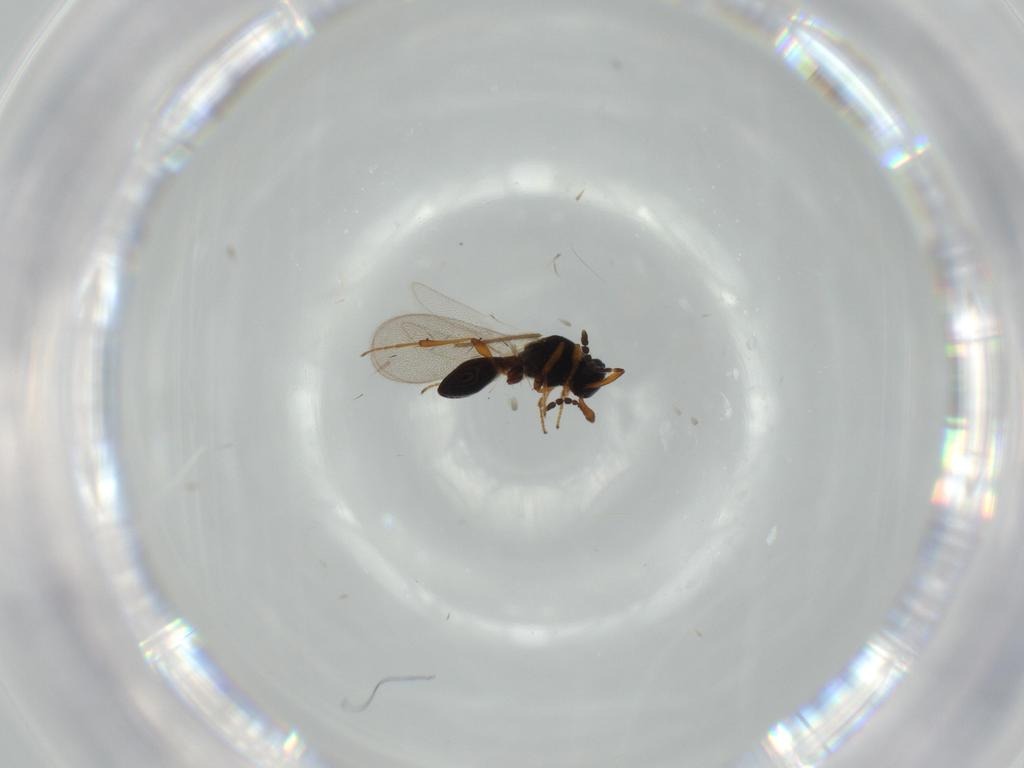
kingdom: Animalia
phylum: Arthropoda
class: Insecta
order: Hymenoptera
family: Platygastridae
